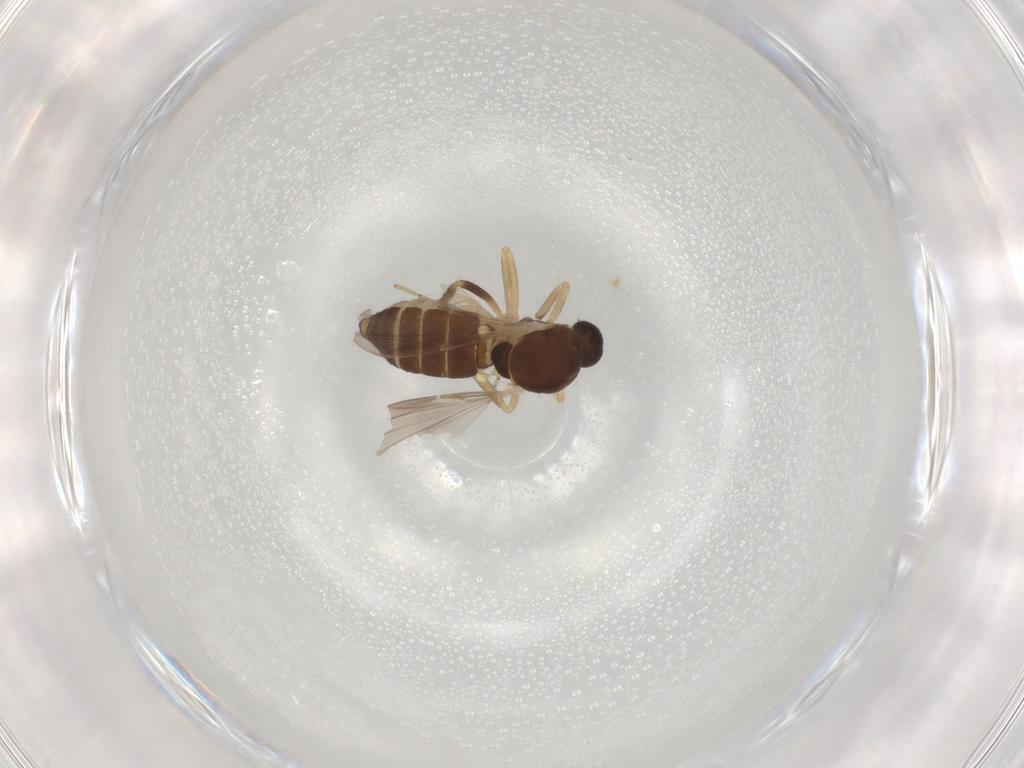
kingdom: Animalia
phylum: Arthropoda
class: Insecta
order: Diptera
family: Ceratopogonidae
